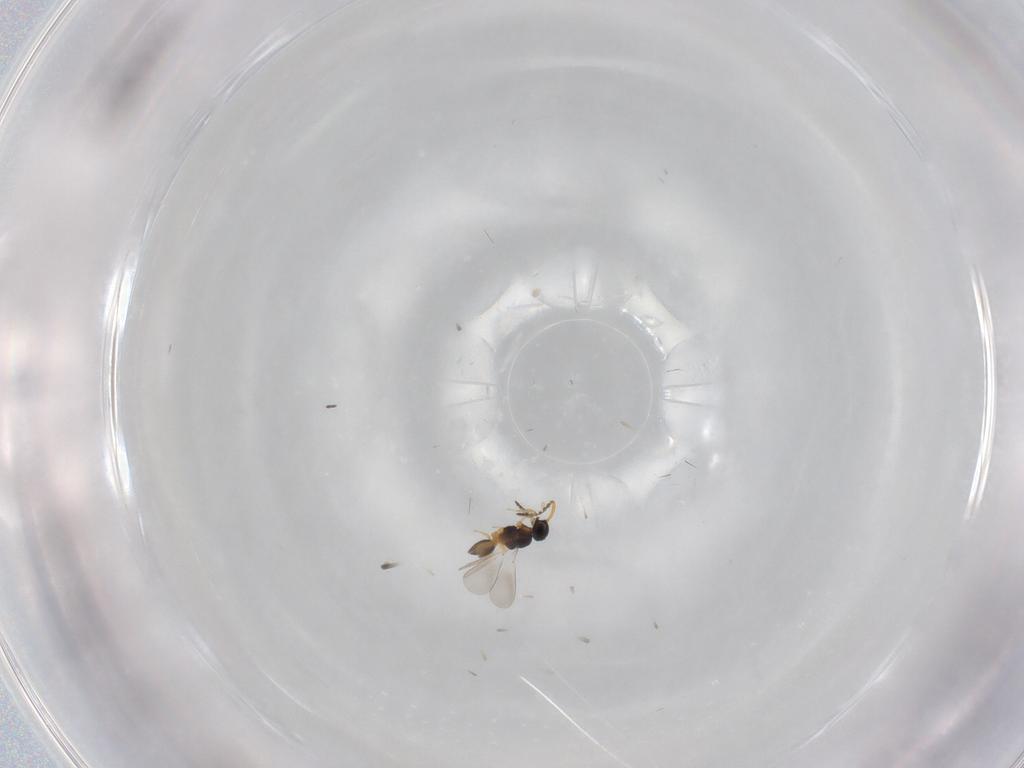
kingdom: Animalia
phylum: Arthropoda
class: Insecta
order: Hymenoptera
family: Platygastridae
